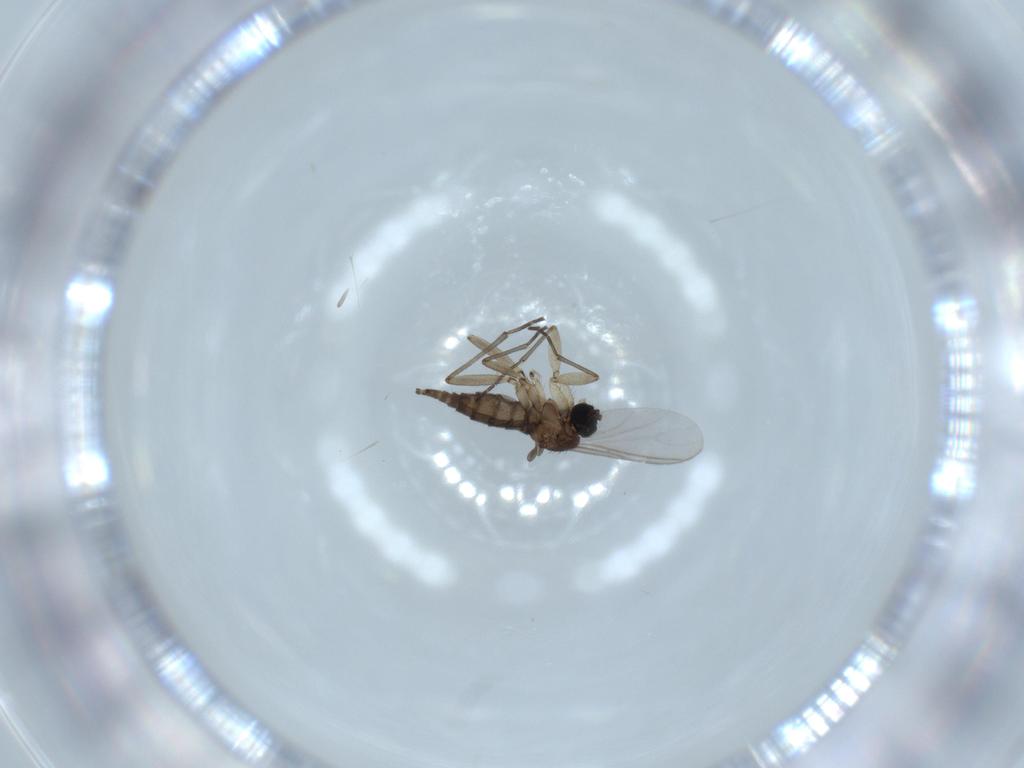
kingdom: Animalia
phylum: Arthropoda
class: Insecta
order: Diptera
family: Sciaridae
